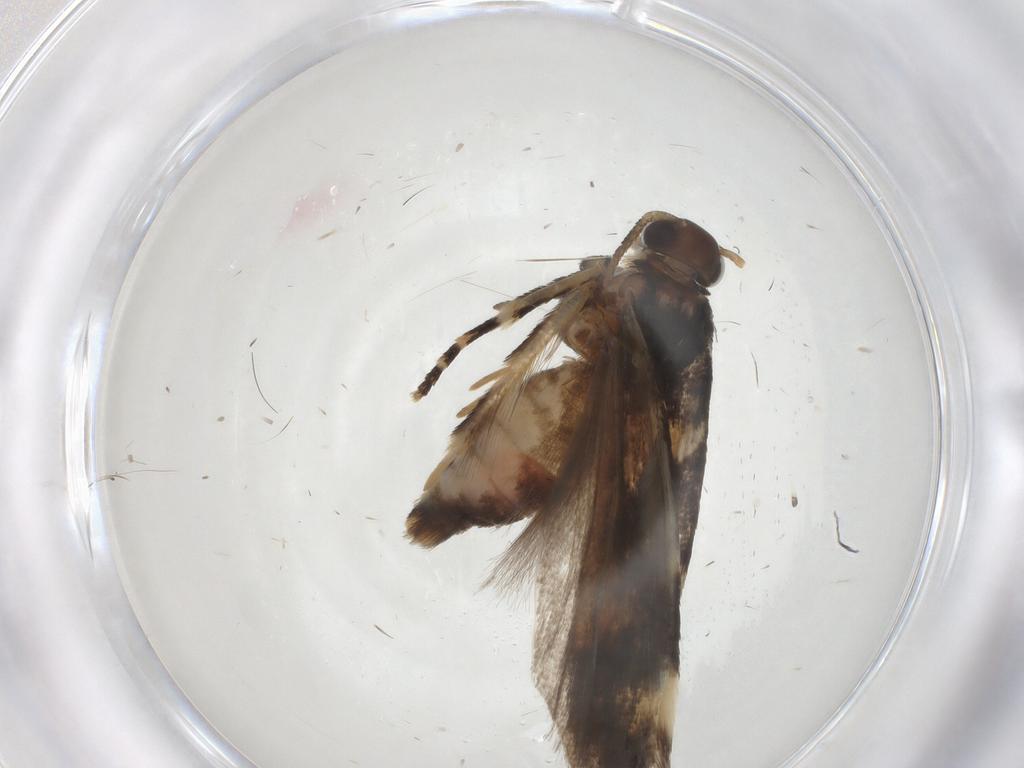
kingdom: Animalia
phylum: Arthropoda
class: Insecta
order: Lepidoptera
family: Gelechiidae
